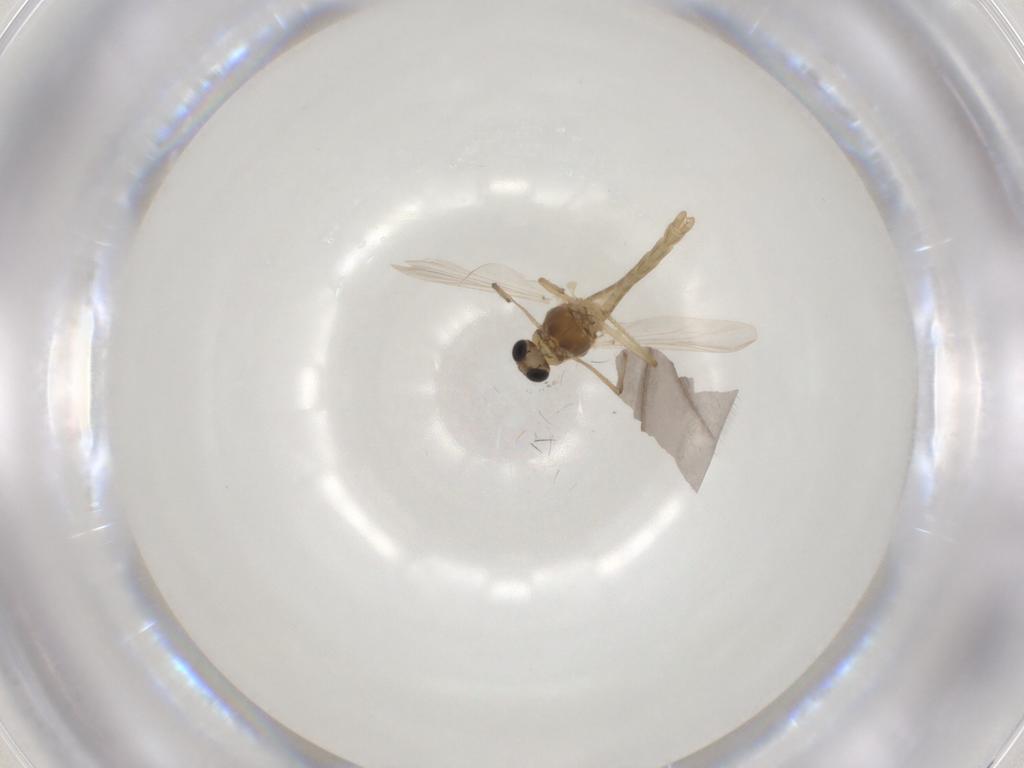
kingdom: Animalia
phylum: Arthropoda
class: Insecta
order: Diptera
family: Chironomidae
